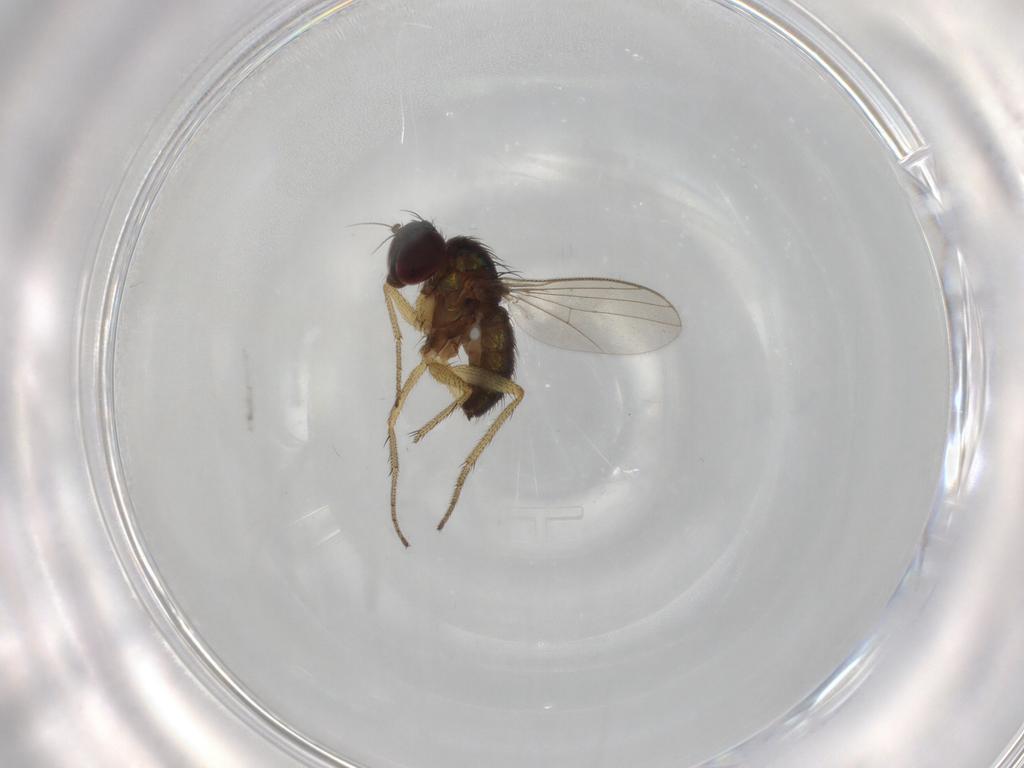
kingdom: Animalia
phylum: Arthropoda
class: Insecta
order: Diptera
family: Dolichopodidae
